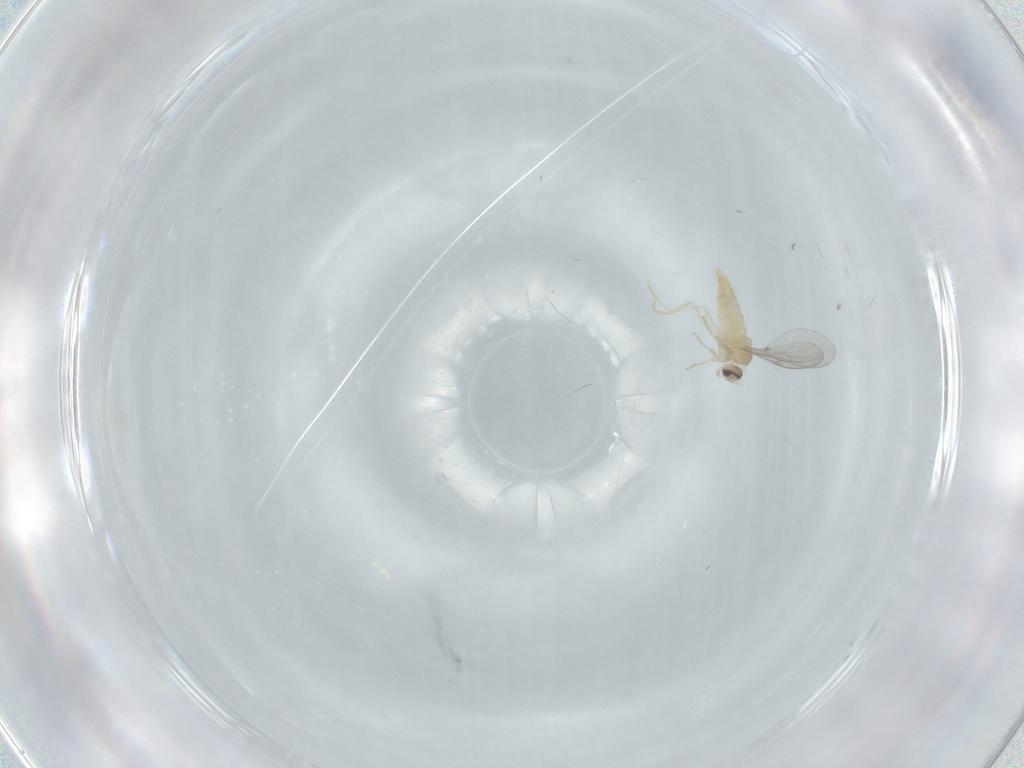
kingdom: Animalia
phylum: Arthropoda
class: Insecta
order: Diptera
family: Cecidomyiidae
